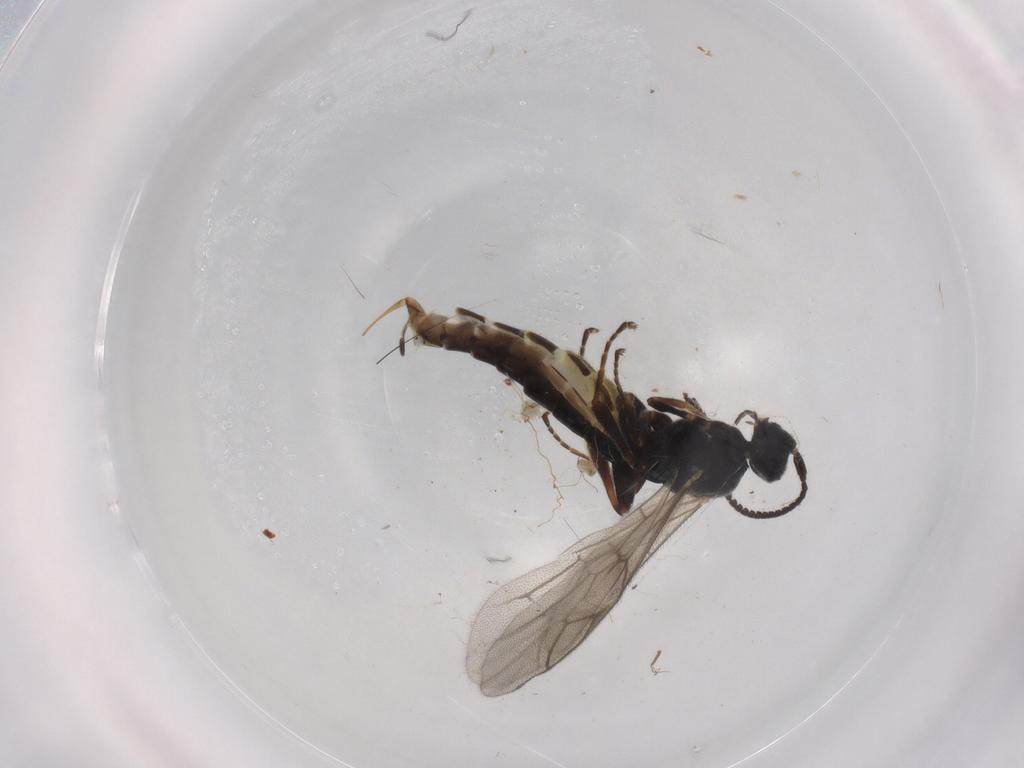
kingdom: Animalia
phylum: Arthropoda
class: Insecta
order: Hymenoptera
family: Ichneumonidae
